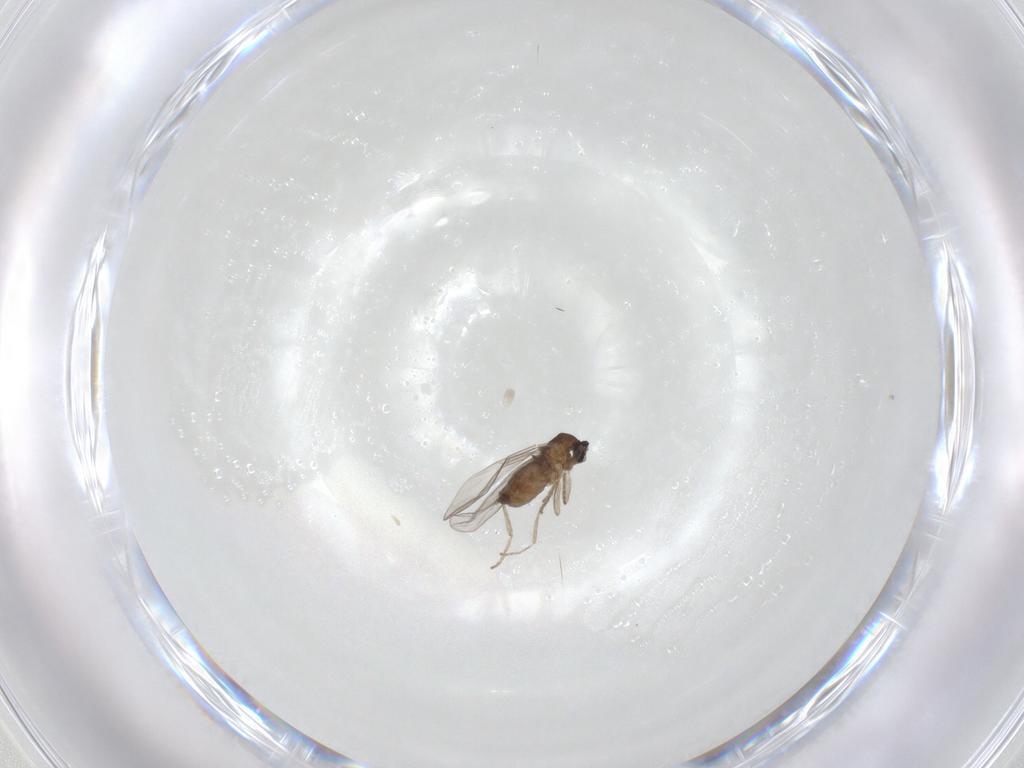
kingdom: Animalia
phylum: Arthropoda
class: Insecta
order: Diptera
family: Cecidomyiidae
